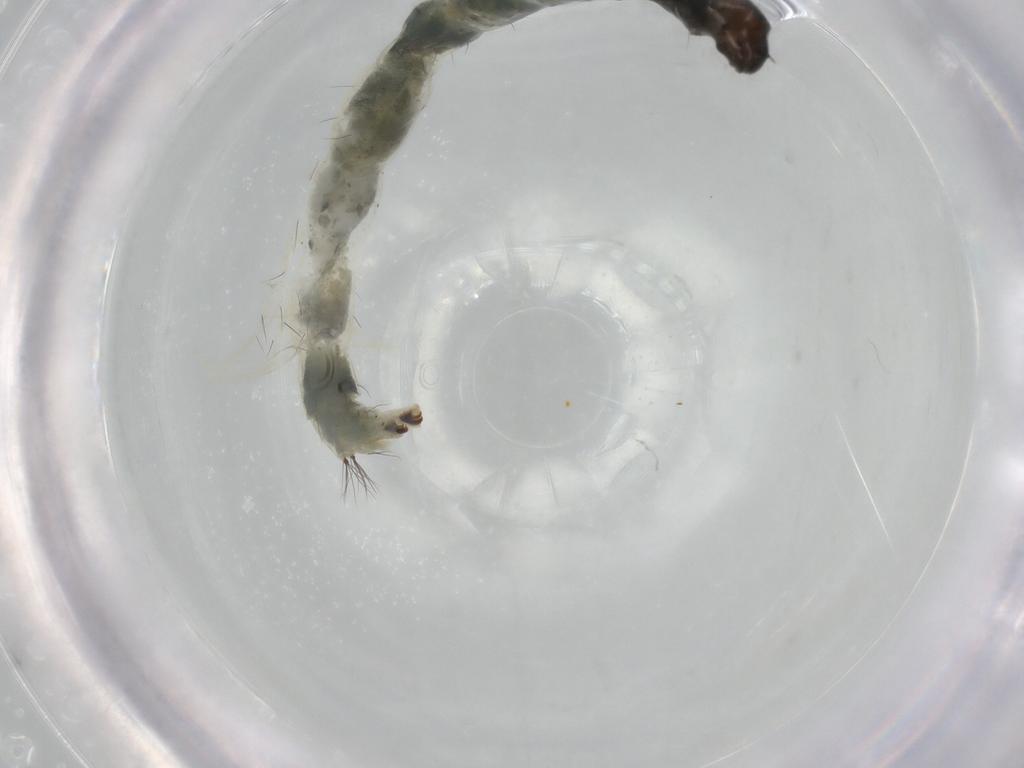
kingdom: Animalia
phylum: Arthropoda
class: Insecta
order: Diptera
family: Chironomidae
